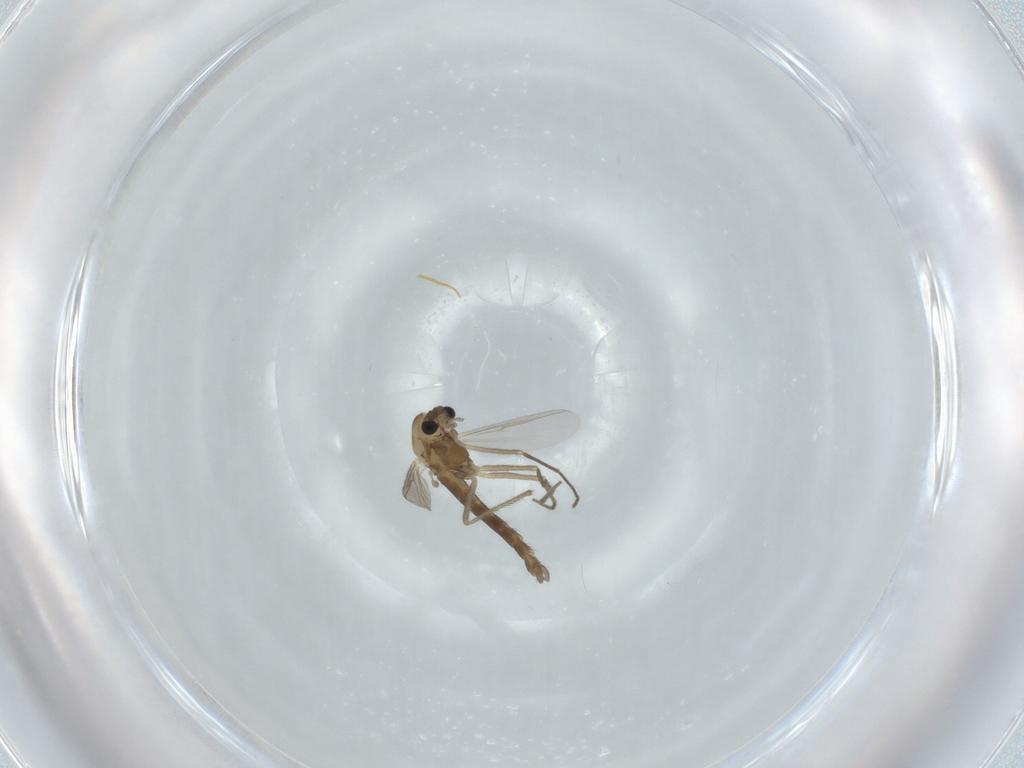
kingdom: Animalia
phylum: Arthropoda
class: Insecta
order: Diptera
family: Chironomidae
